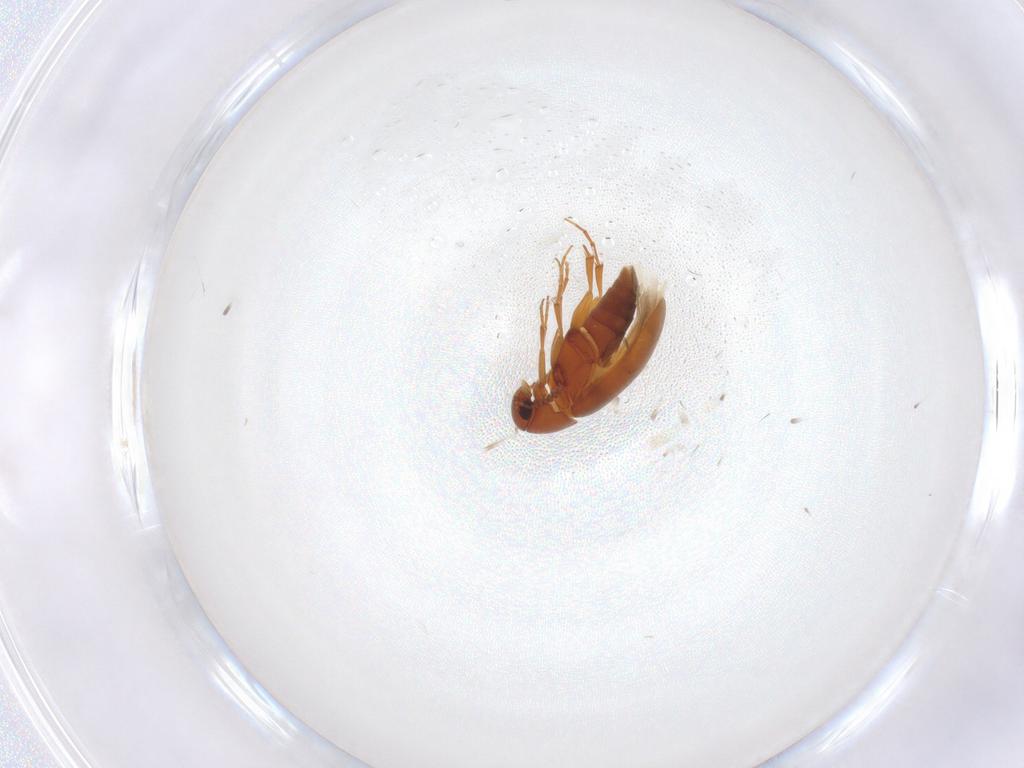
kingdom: Animalia
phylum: Arthropoda
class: Insecta
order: Coleoptera
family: Scraptiidae
